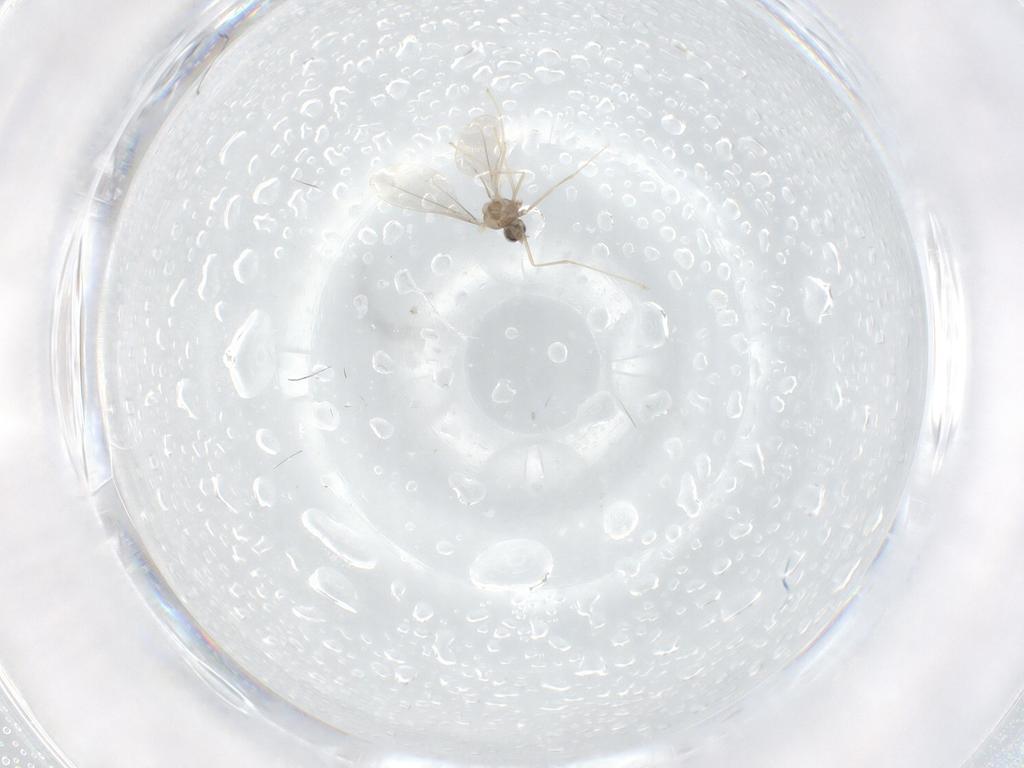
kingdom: Animalia
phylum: Arthropoda
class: Insecta
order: Diptera
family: Cecidomyiidae
